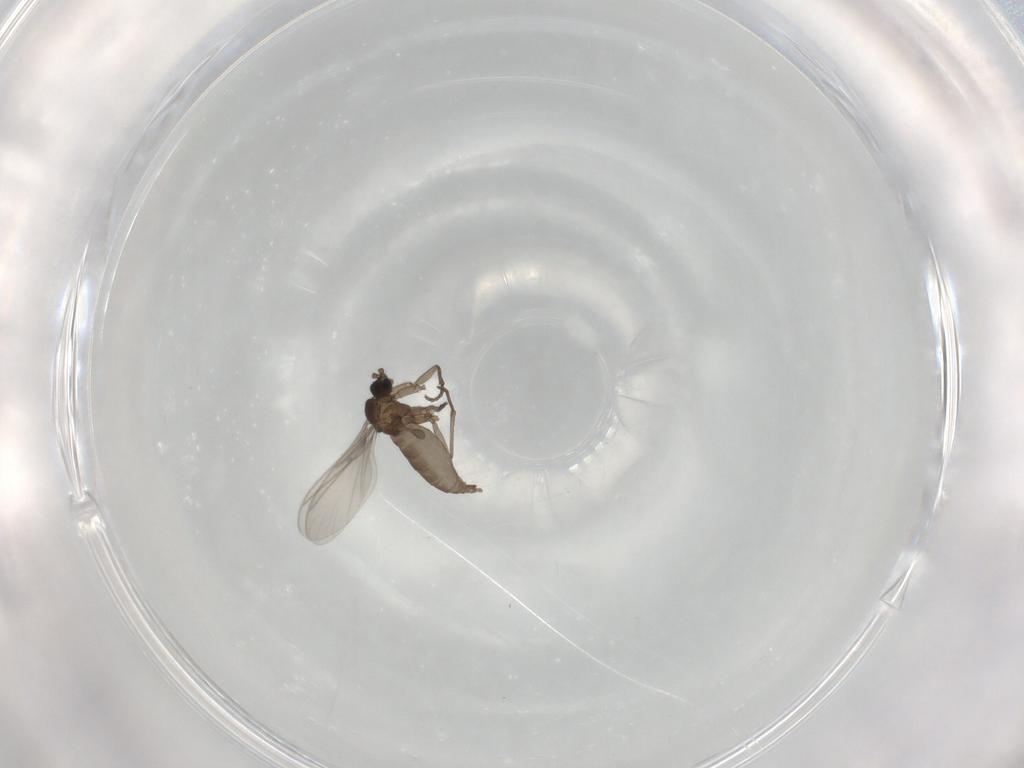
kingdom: Animalia
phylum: Arthropoda
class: Insecta
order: Diptera
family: Sciaridae
